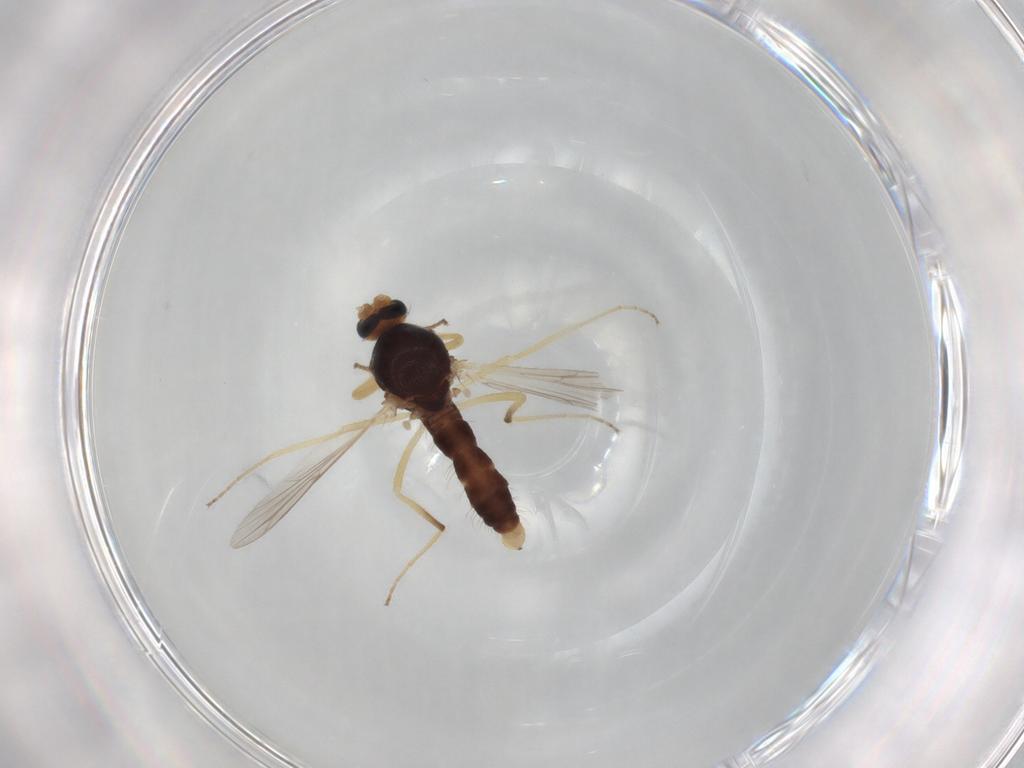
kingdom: Animalia
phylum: Arthropoda
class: Insecta
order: Diptera
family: Ceratopogonidae
